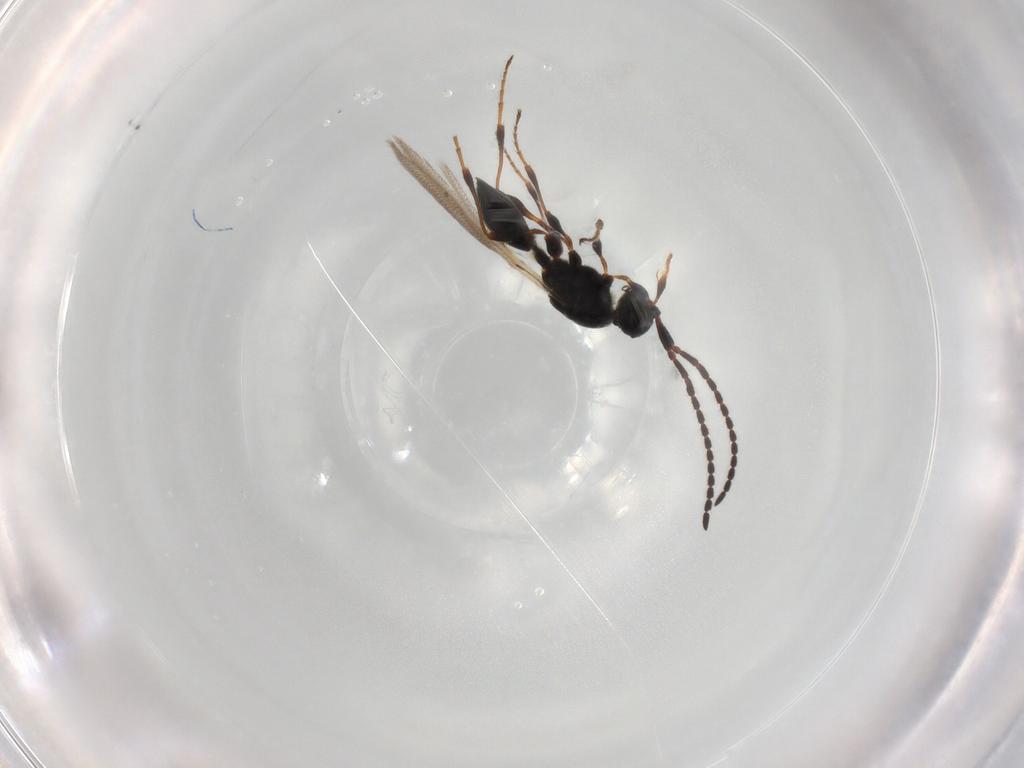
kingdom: Animalia
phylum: Arthropoda
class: Insecta
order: Hymenoptera
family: Diapriidae
